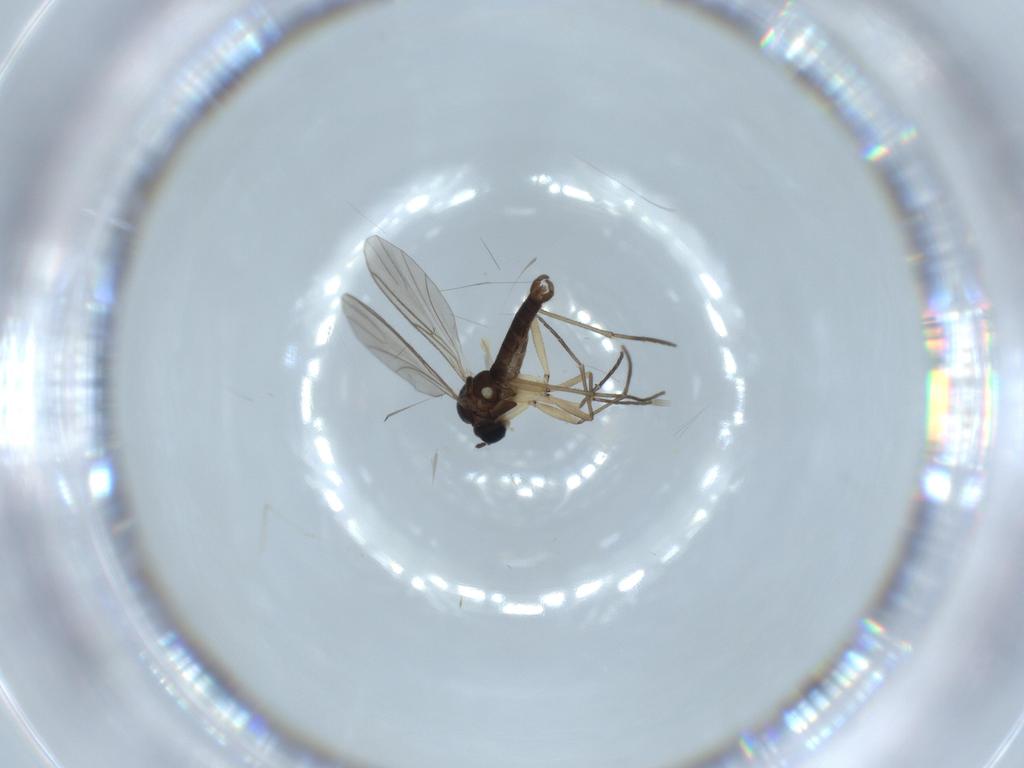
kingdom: Animalia
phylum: Arthropoda
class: Insecta
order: Diptera
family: Sciaridae
